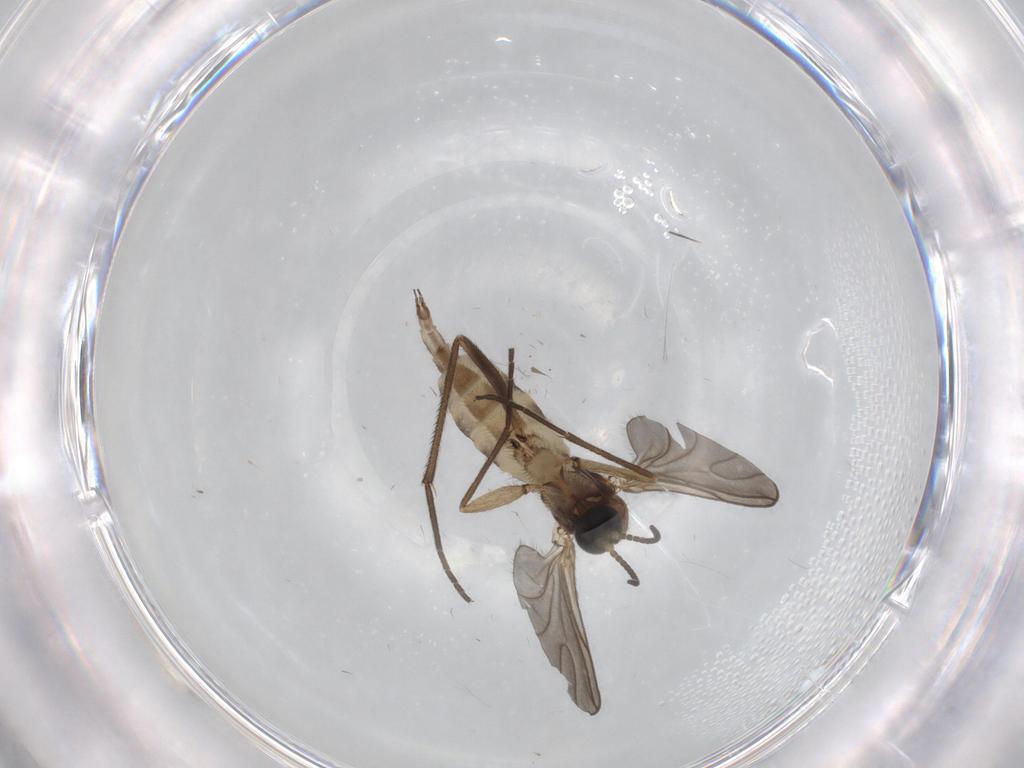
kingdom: Animalia
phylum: Arthropoda
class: Insecta
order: Diptera
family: Sciaridae
